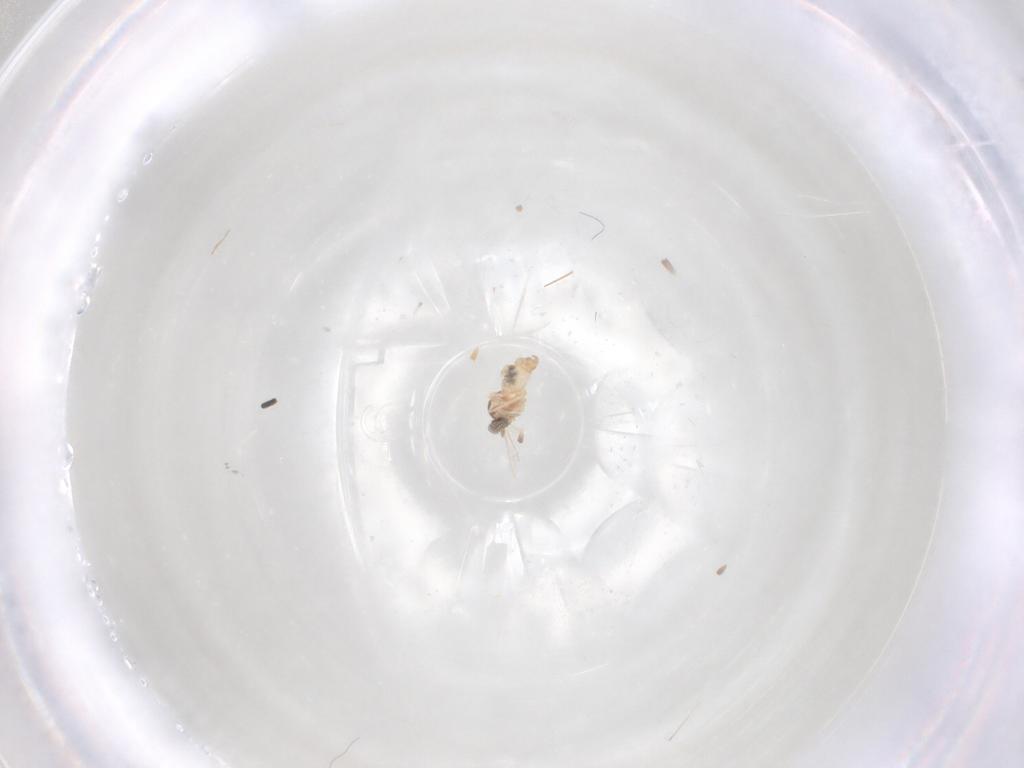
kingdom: Animalia
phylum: Arthropoda
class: Insecta
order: Diptera
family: Cecidomyiidae
